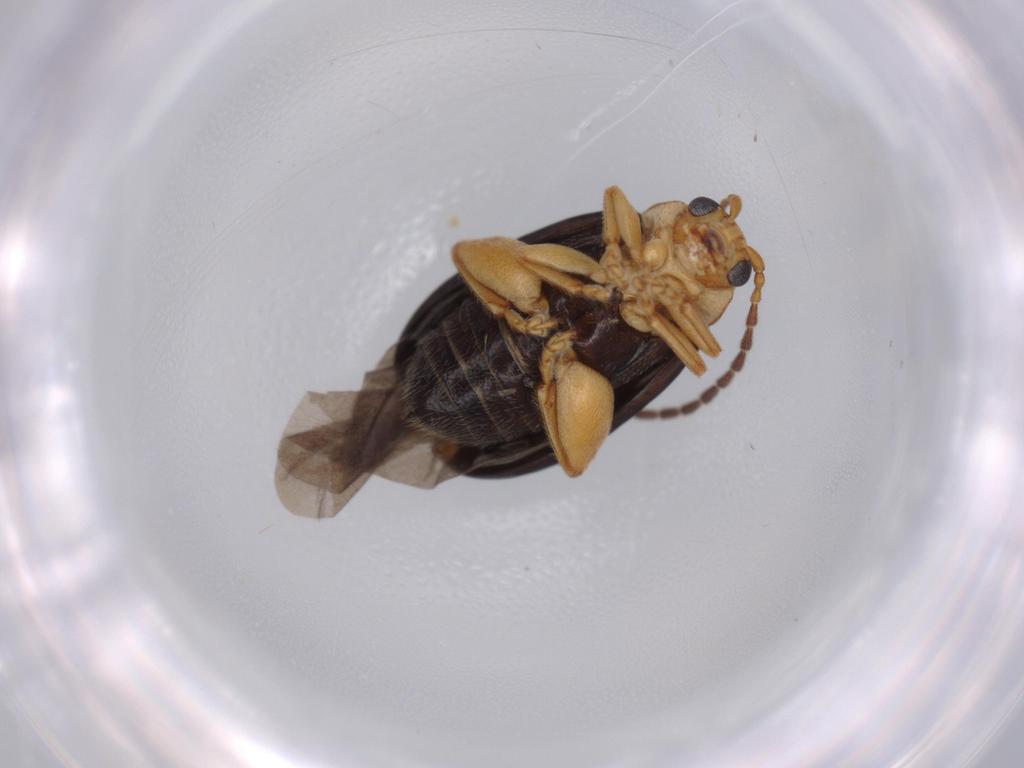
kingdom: Animalia
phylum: Arthropoda
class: Insecta
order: Coleoptera
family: Chrysomelidae
